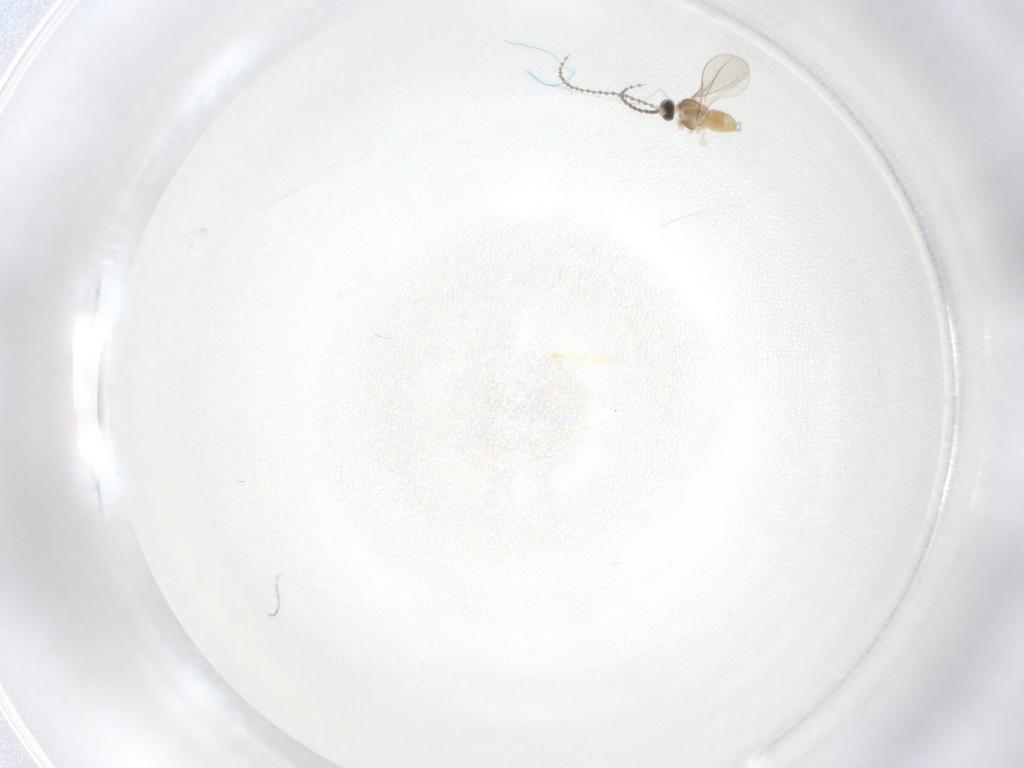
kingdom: Animalia
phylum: Arthropoda
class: Insecta
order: Diptera
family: Cecidomyiidae
